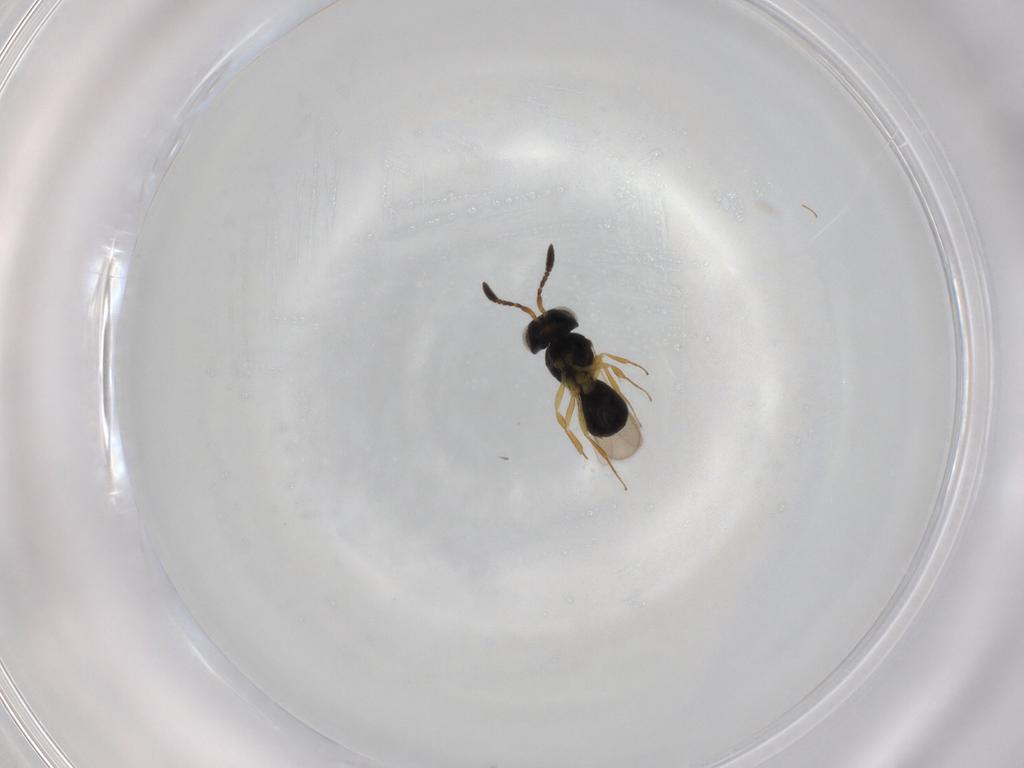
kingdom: Animalia
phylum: Arthropoda
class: Insecta
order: Hymenoptera
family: Scelionidae
